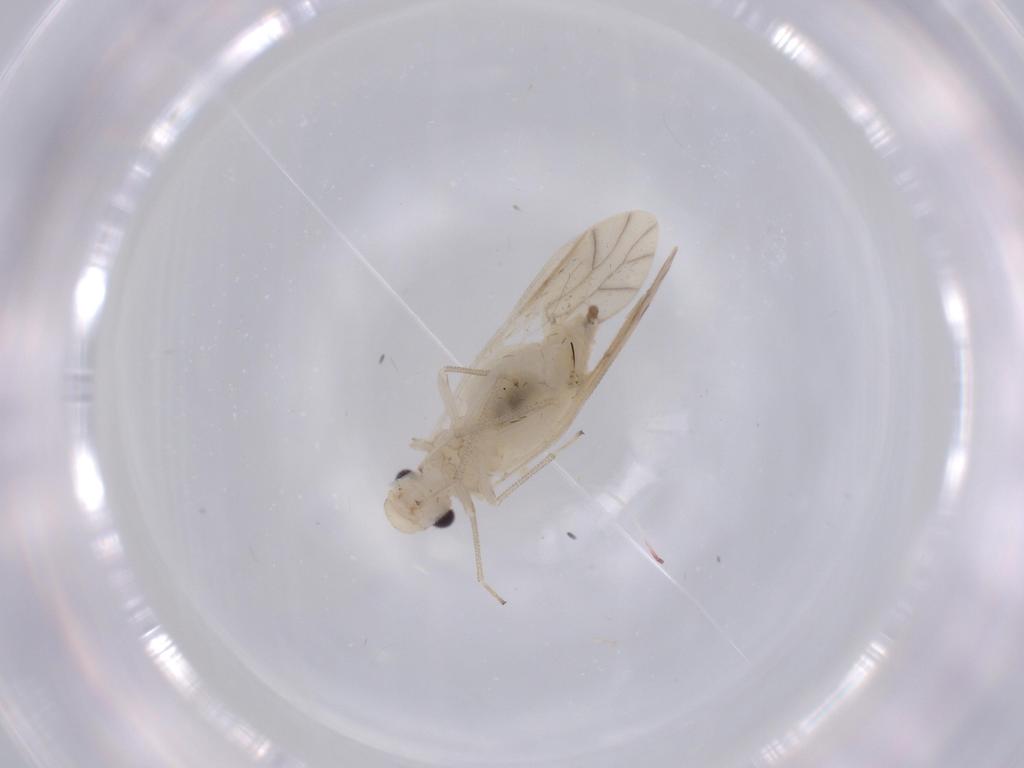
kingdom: Animalia
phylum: Arthropoda
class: Insecta
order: Psocodea
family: Caeciliusidae
